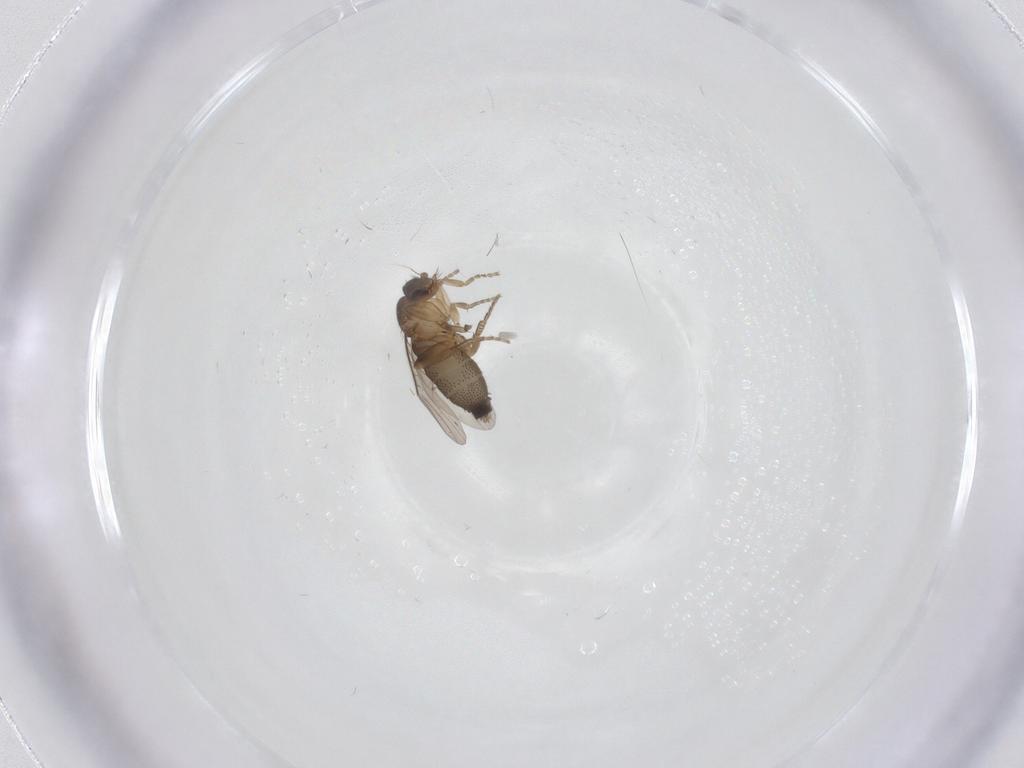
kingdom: Animalia
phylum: Arthropoda
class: Insecta
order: Diptera
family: Phoridae
